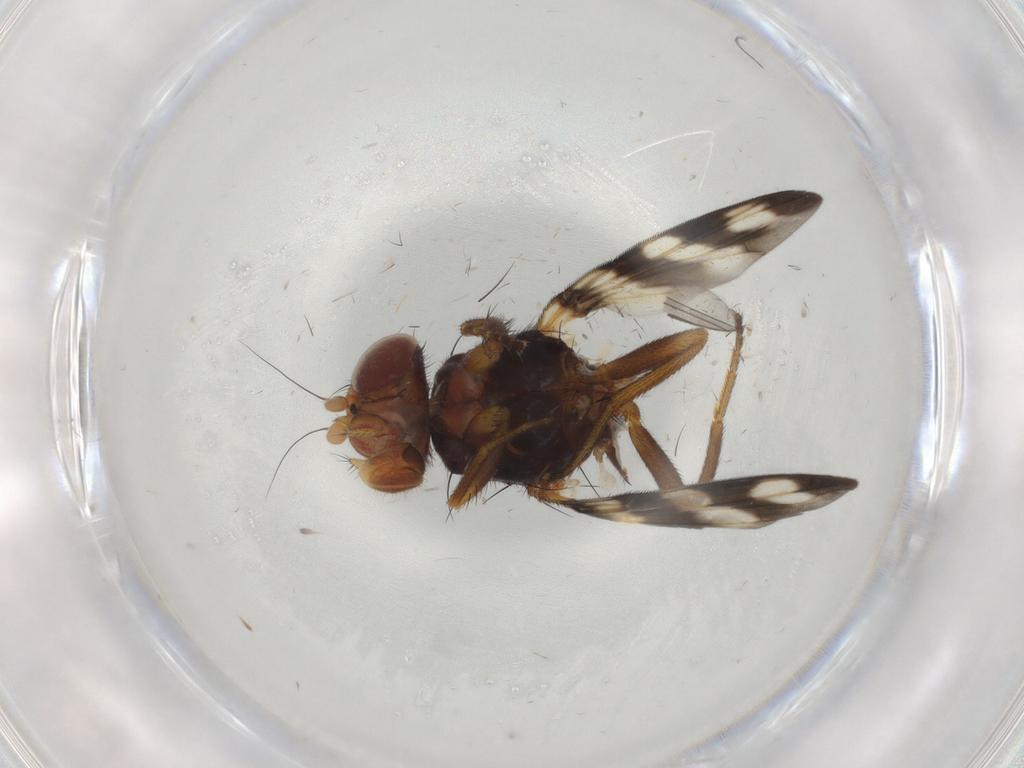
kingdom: Animalia
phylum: Arthropoda
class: Insecta
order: Diptera
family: Ulidiidae
